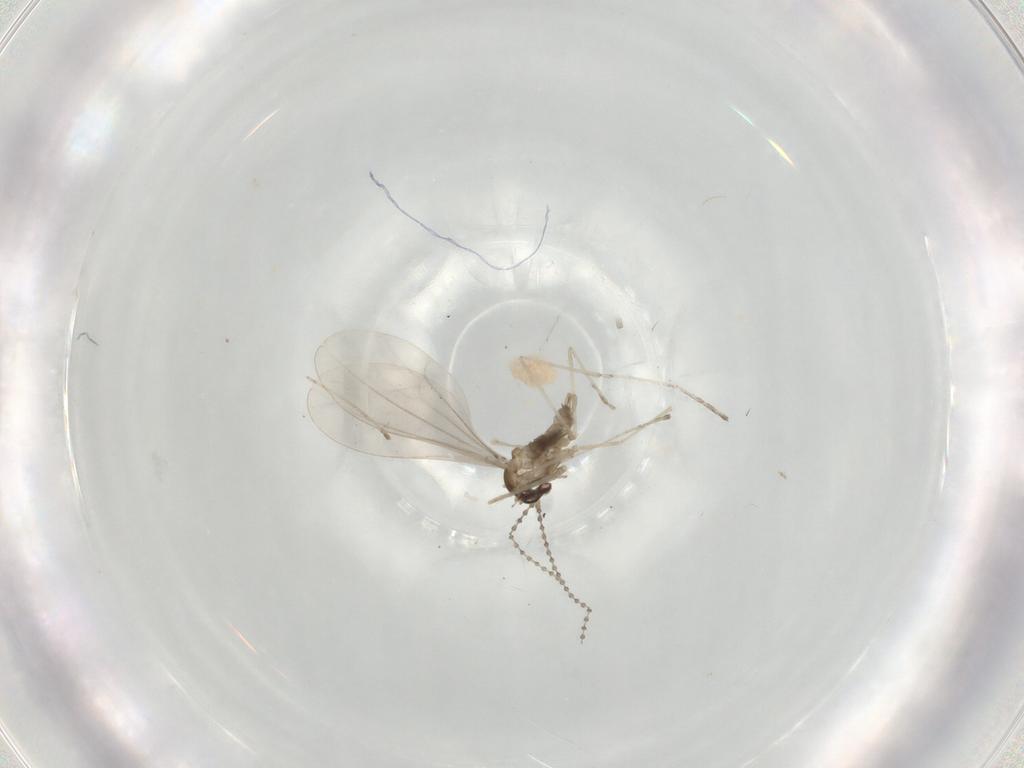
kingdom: Animalia
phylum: Arthropoda
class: Insecta
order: Diptera
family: Cecidomyiidae
